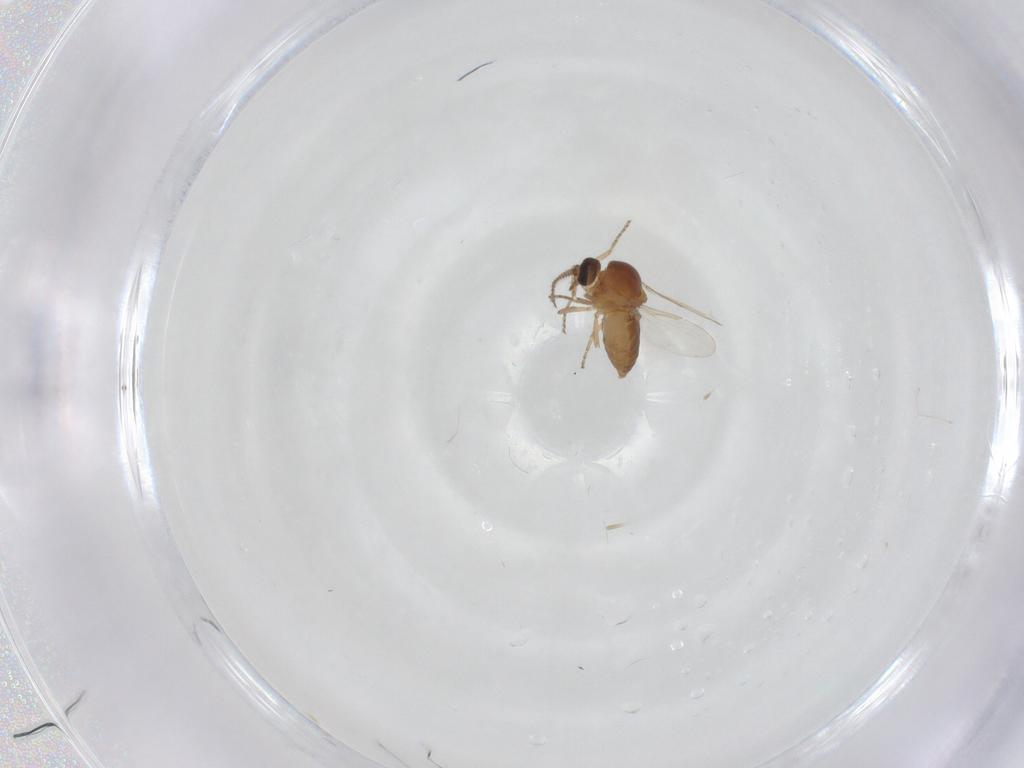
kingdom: Animalia
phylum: Arthropoda
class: Insecta
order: Diptera
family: Ceratopogonidae
